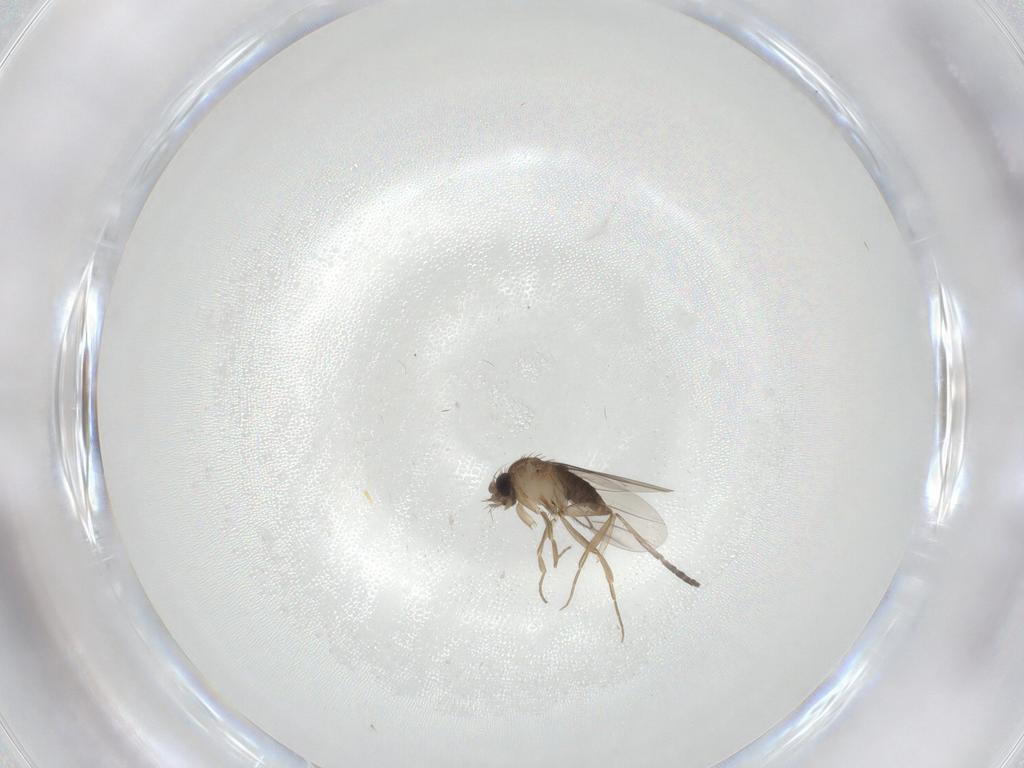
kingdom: Animalia
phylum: Arthropoda
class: Insecta
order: Diptera
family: Phoridae
